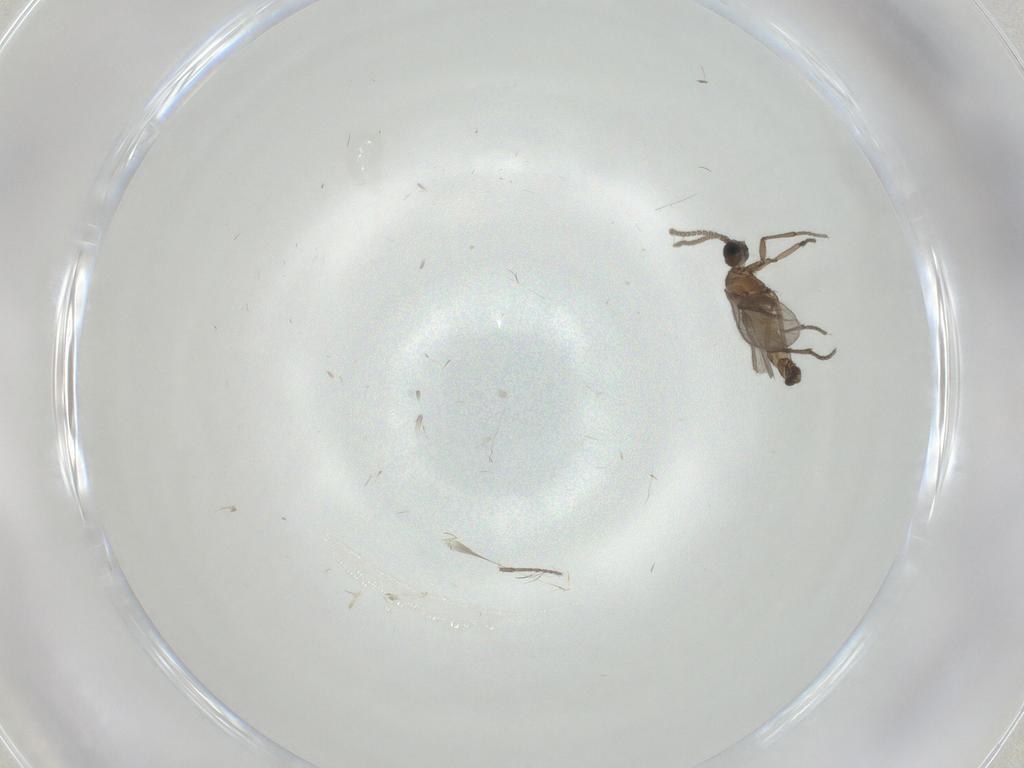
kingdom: Animalia
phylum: Arthropoda
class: Insecta
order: Diptera
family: Sciaridae
